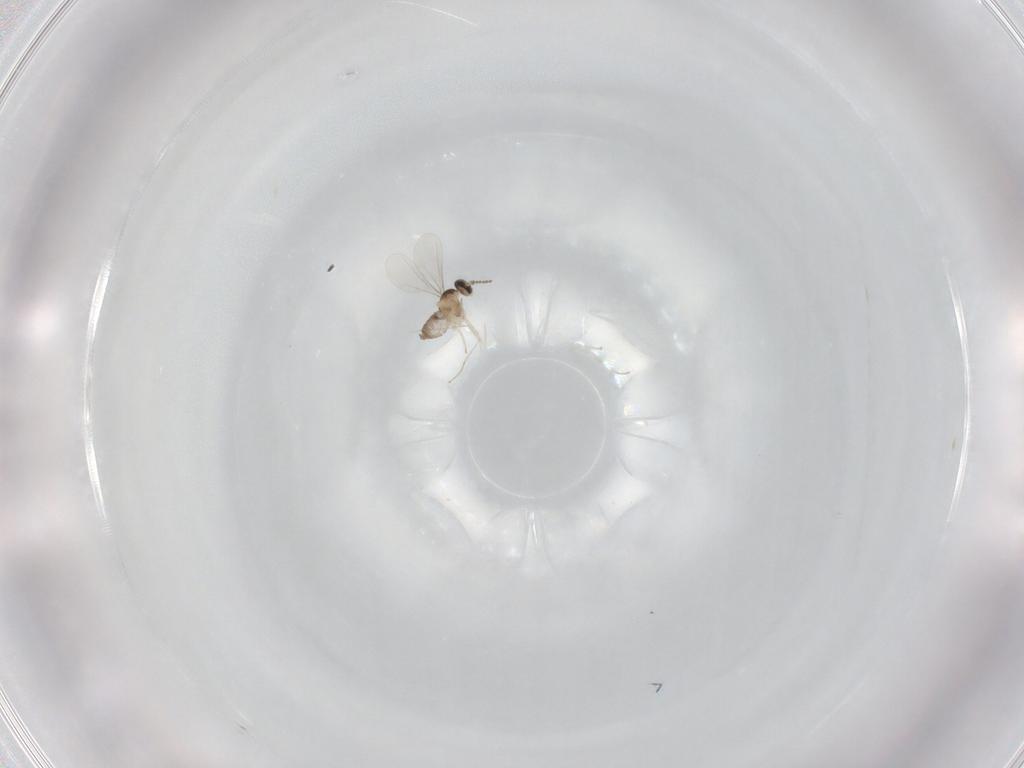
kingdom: Animalia
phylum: Arthropoda
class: Insecta
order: Diptera
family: Cecidomyiidae
